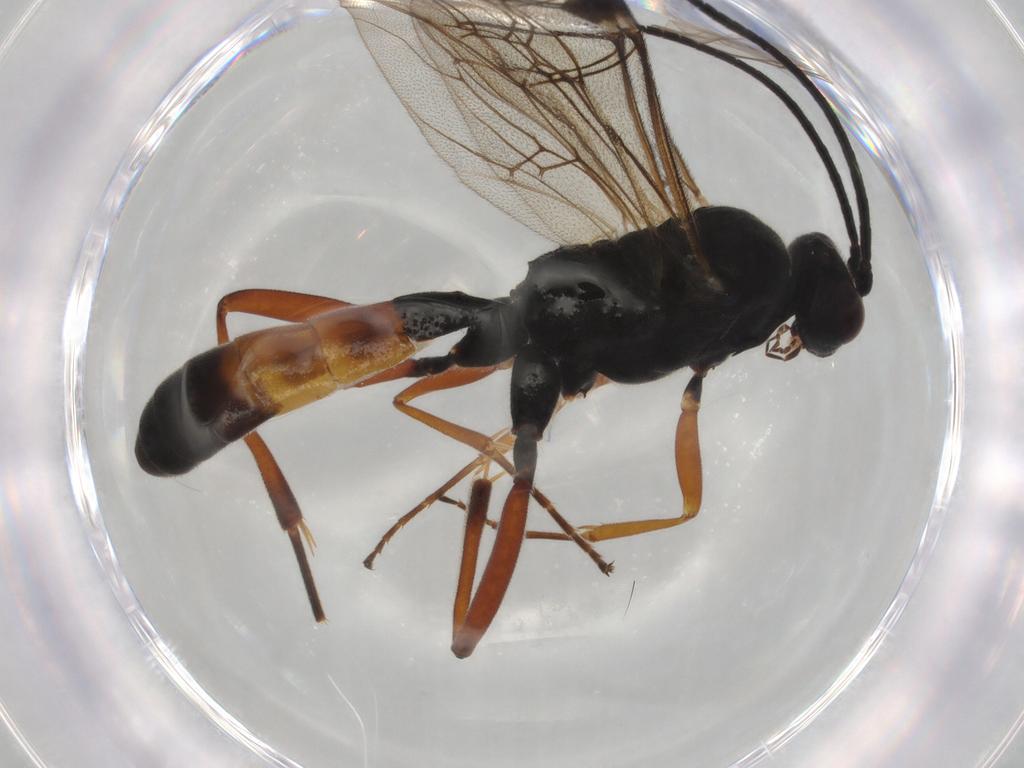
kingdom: Animalia
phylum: Arthropoda
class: Insecta
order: Hymenoptera
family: Formicidae
